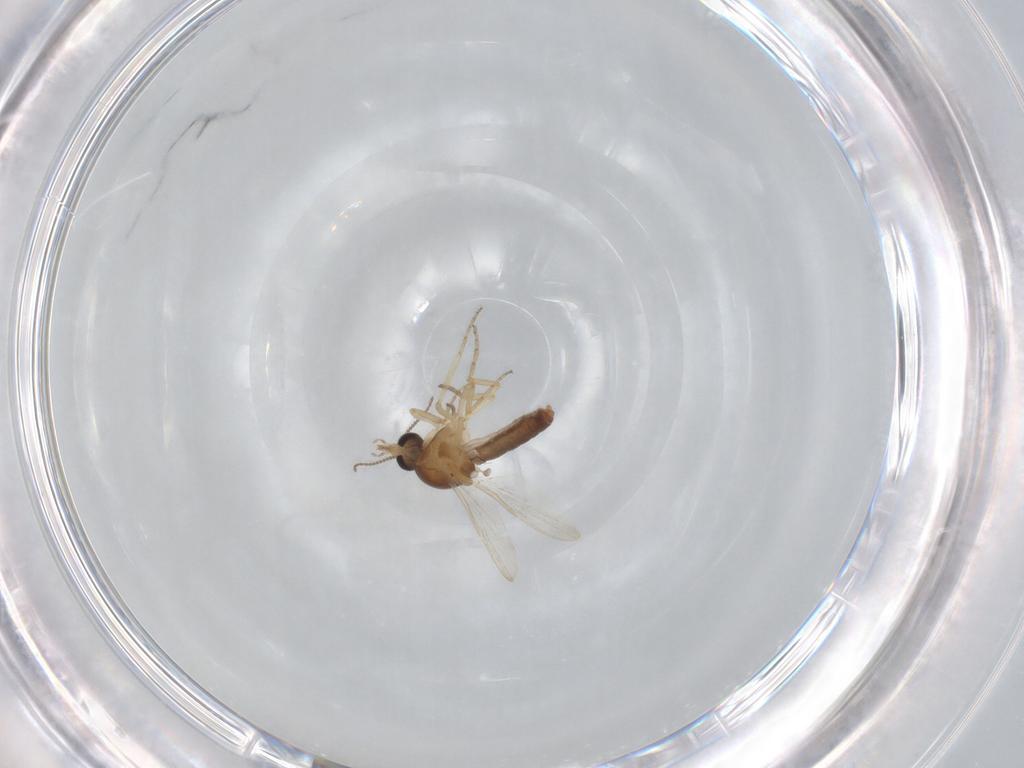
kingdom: Animalia
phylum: Arthropoda
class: Insecta
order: Diptera
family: Ceratopogonidae
